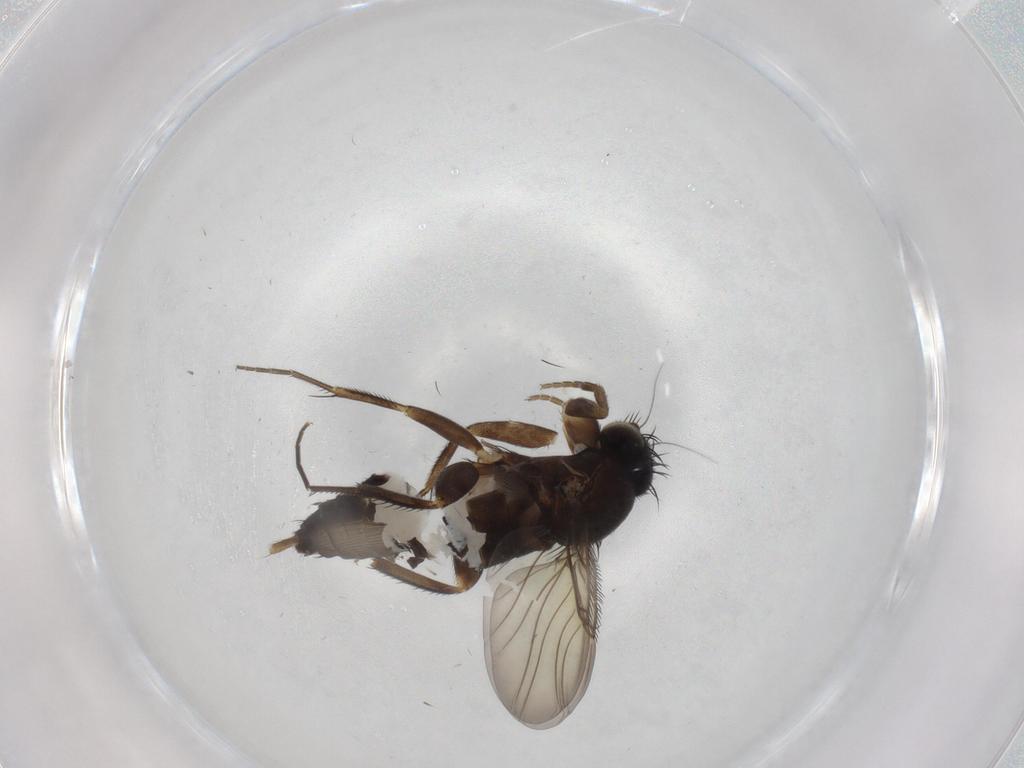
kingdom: Animalia
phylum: Arthropoda
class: Insecta
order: Diptera
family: Phoridae
